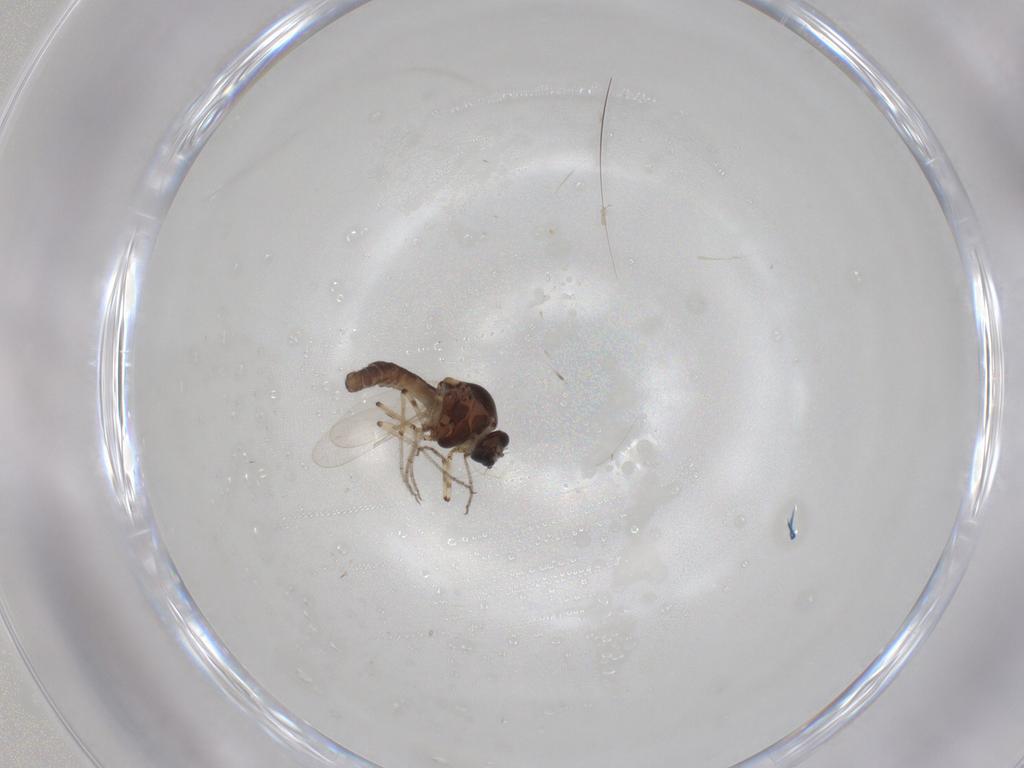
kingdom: Animalia
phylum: Arthropoda
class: Insecta
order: Diptera
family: Ceratopogonidae
